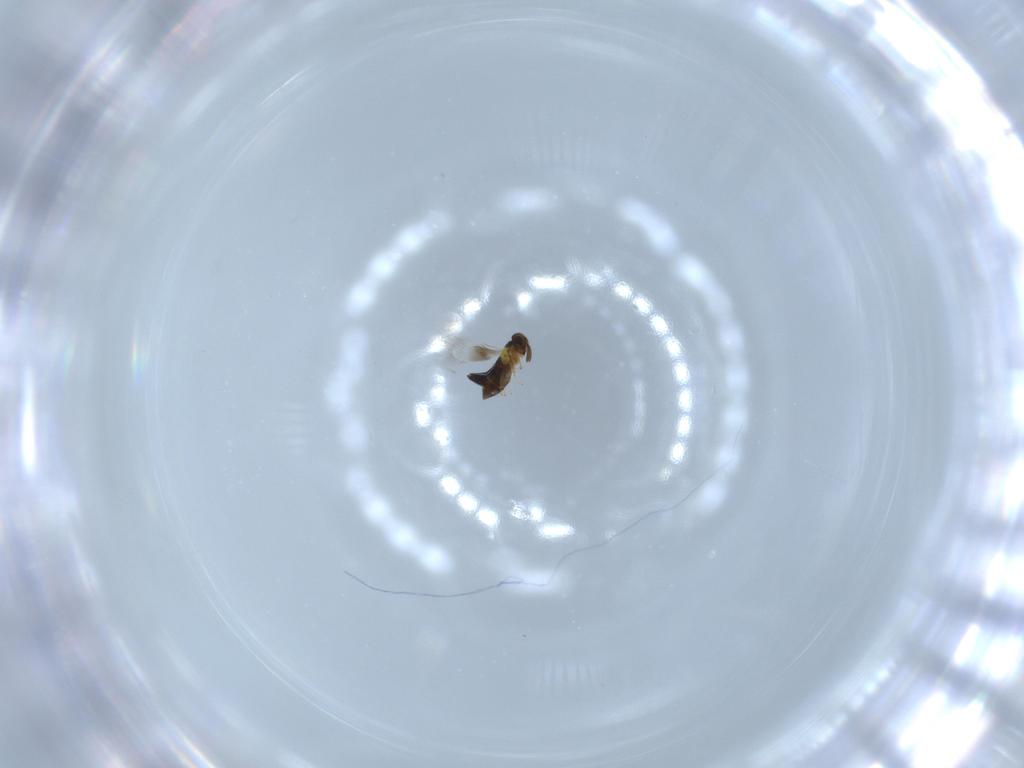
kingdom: Animalia
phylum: Arthropoda
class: Insecta
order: Hymenoptera
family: Signiphoridae
